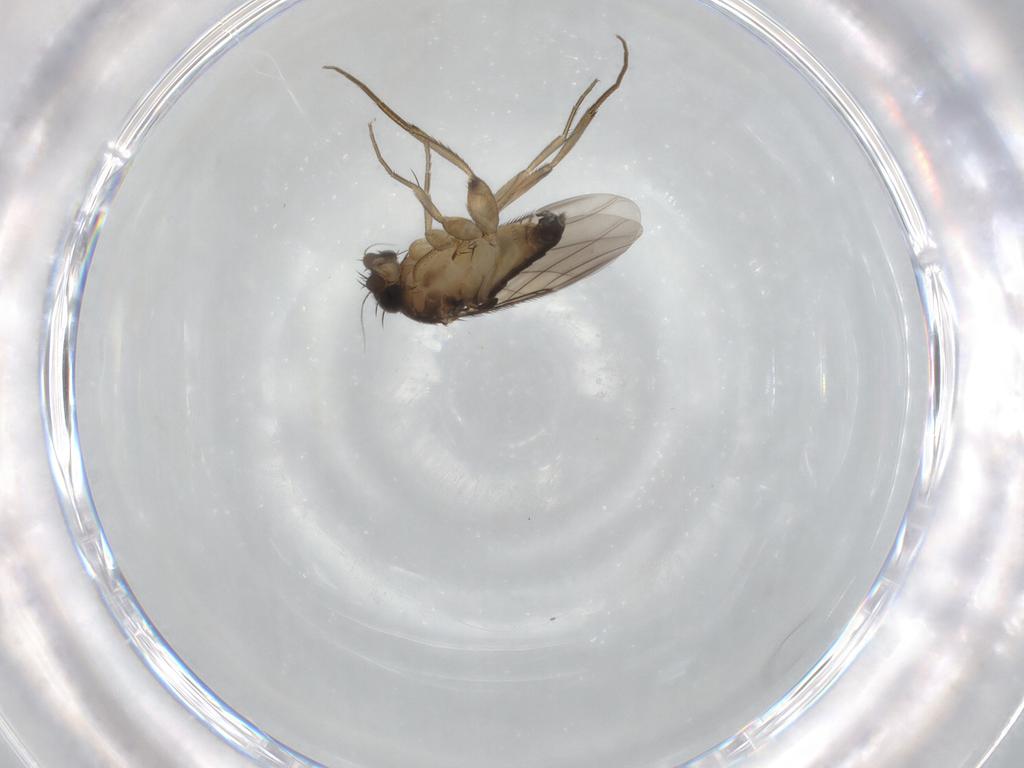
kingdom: Animalia
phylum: Arthropoda
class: Insecta
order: Diptera
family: Phoridae
